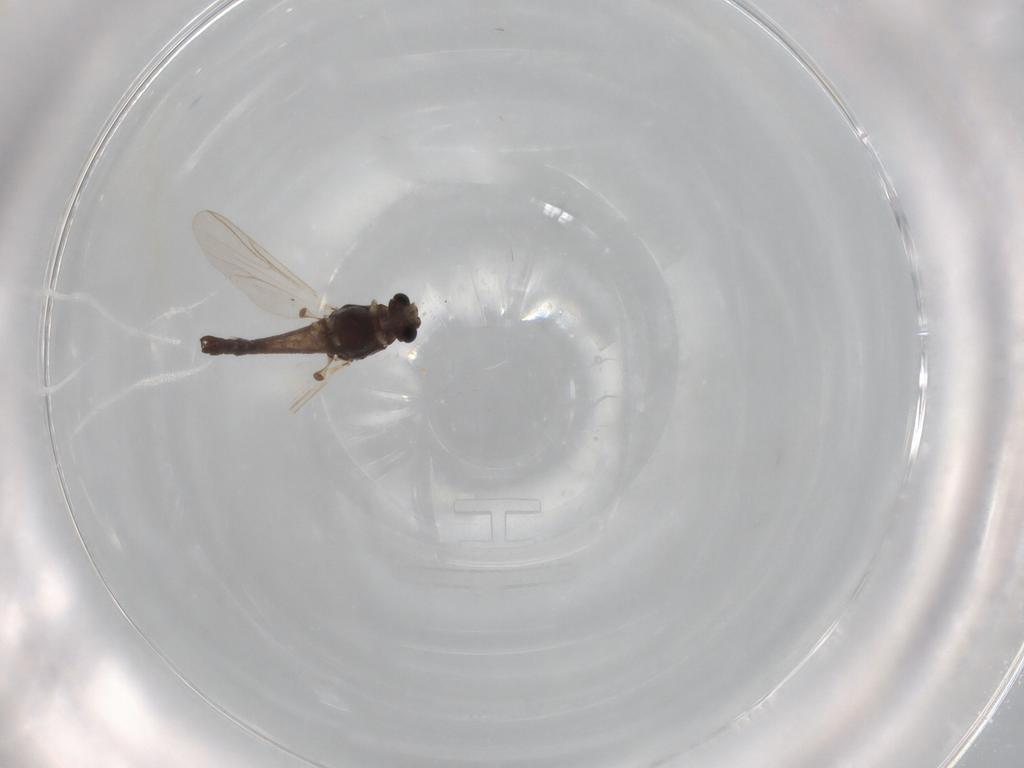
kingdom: Animalia
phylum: Arthropoda
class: Insecta
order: Diptera
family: Chironomidae
